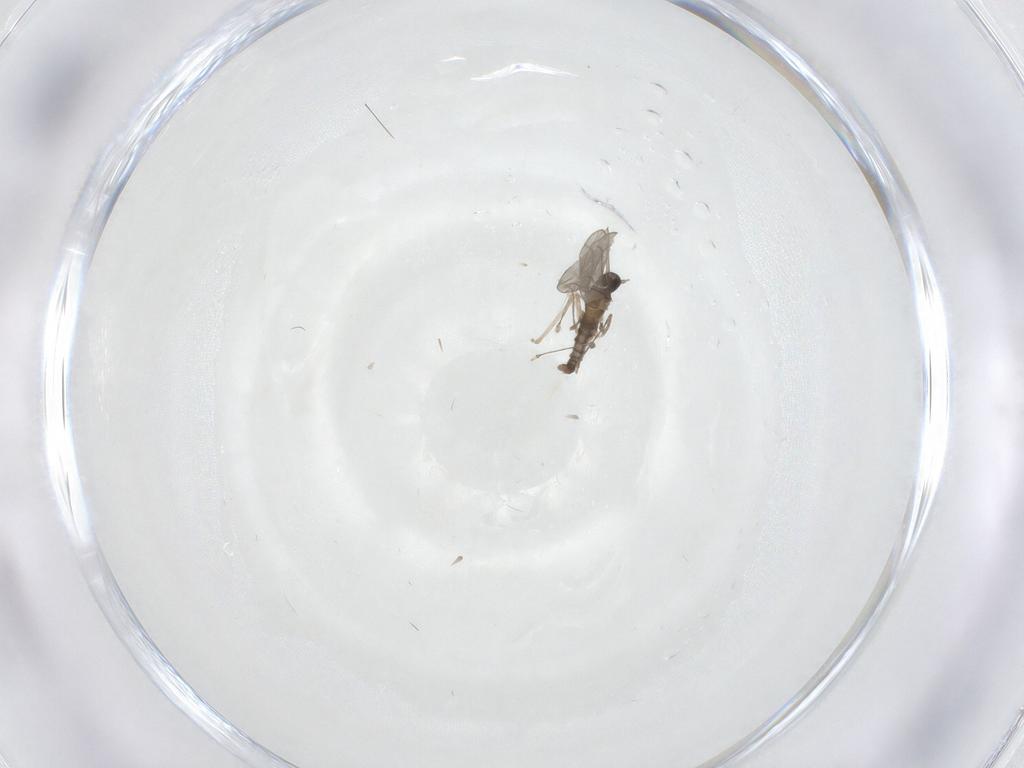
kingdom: Animalia
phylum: Arthropoda
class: Insecta
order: Diptera
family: Cecidomyiidae
